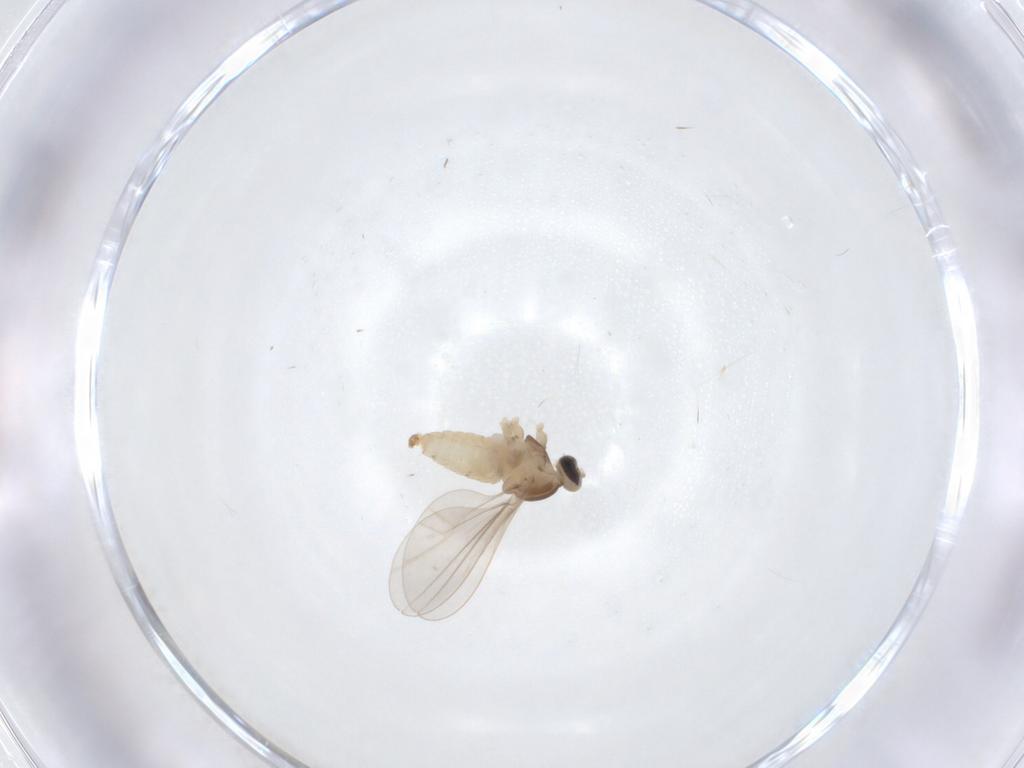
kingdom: Animalia
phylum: Arthropoda
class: Insecta
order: Diptera
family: Cecidomyiidae
